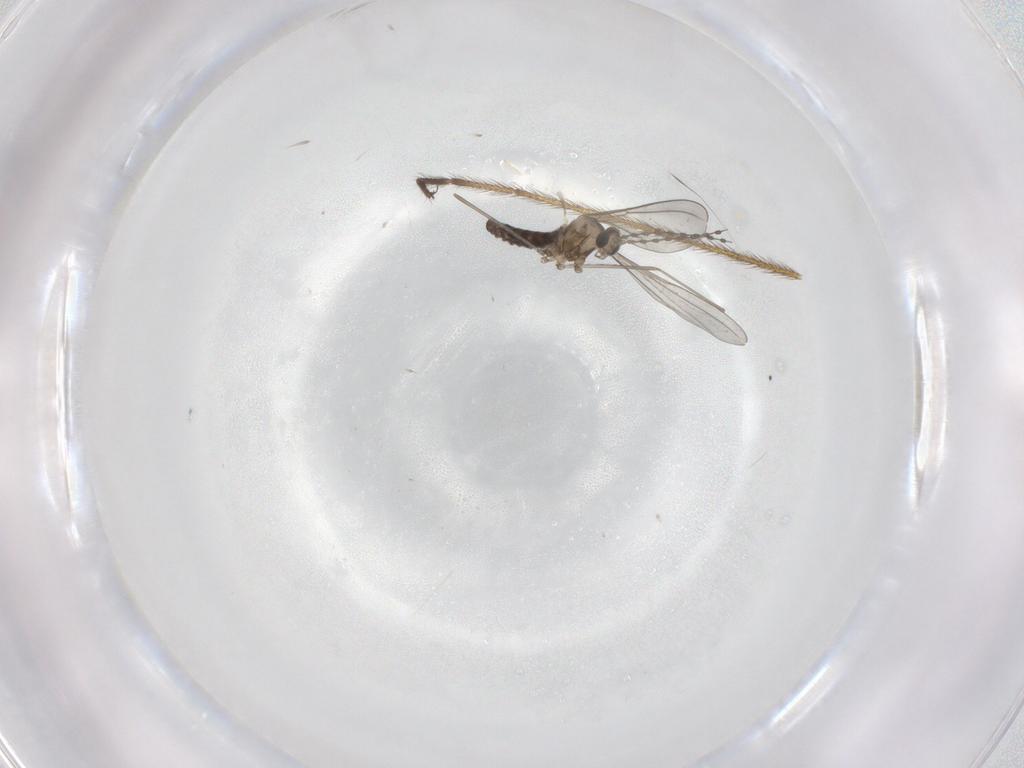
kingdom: Animalia
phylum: Arthropoda
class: Insecta
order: Diptera
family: Cecidomyiidae
